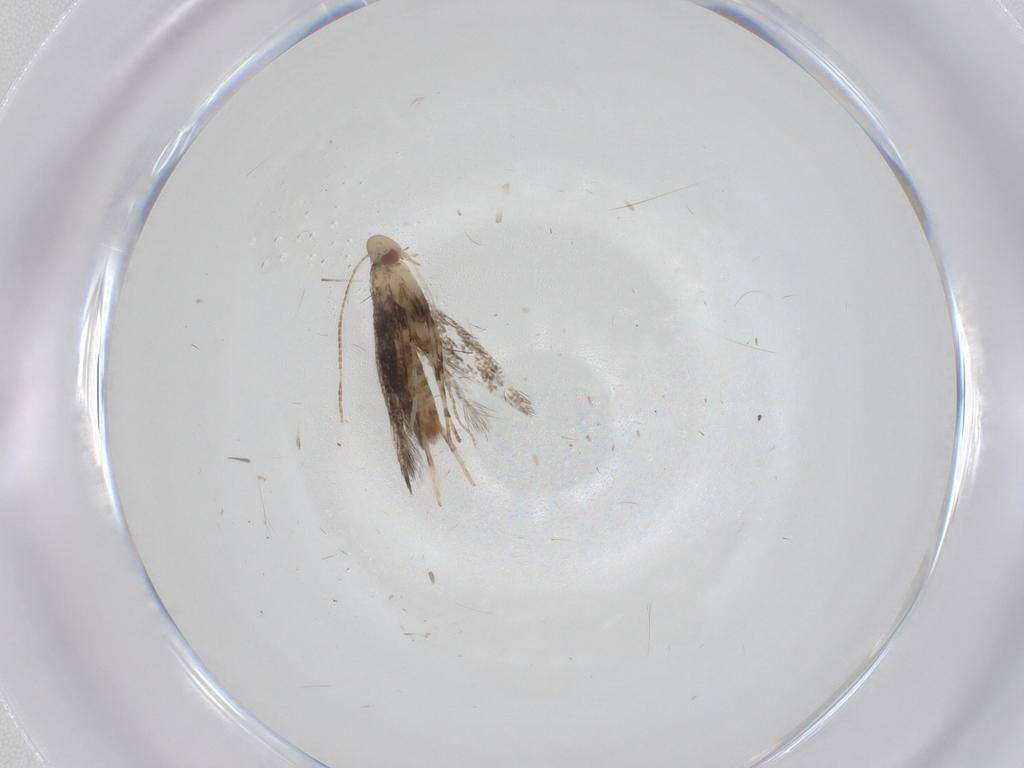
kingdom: Animalia
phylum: Arthropoda
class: Insecta
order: Lepidoptera
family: Gracillariidae
